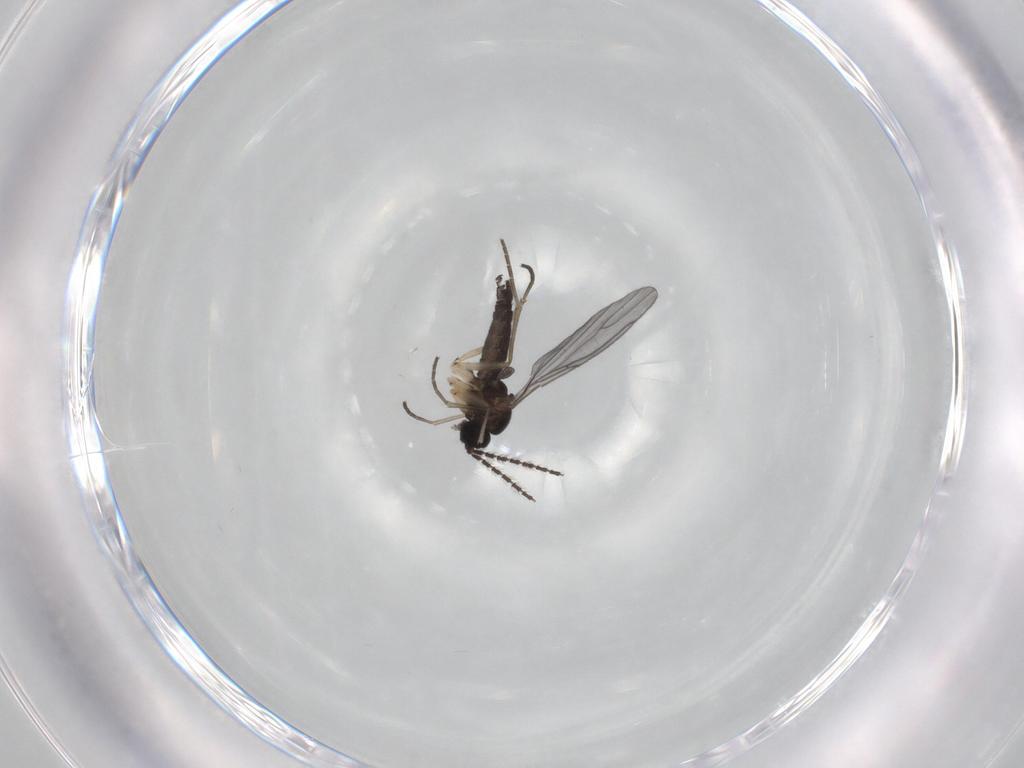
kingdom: Animalia
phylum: Arthropoda
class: Insecta
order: Diptera
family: Sciaridae
